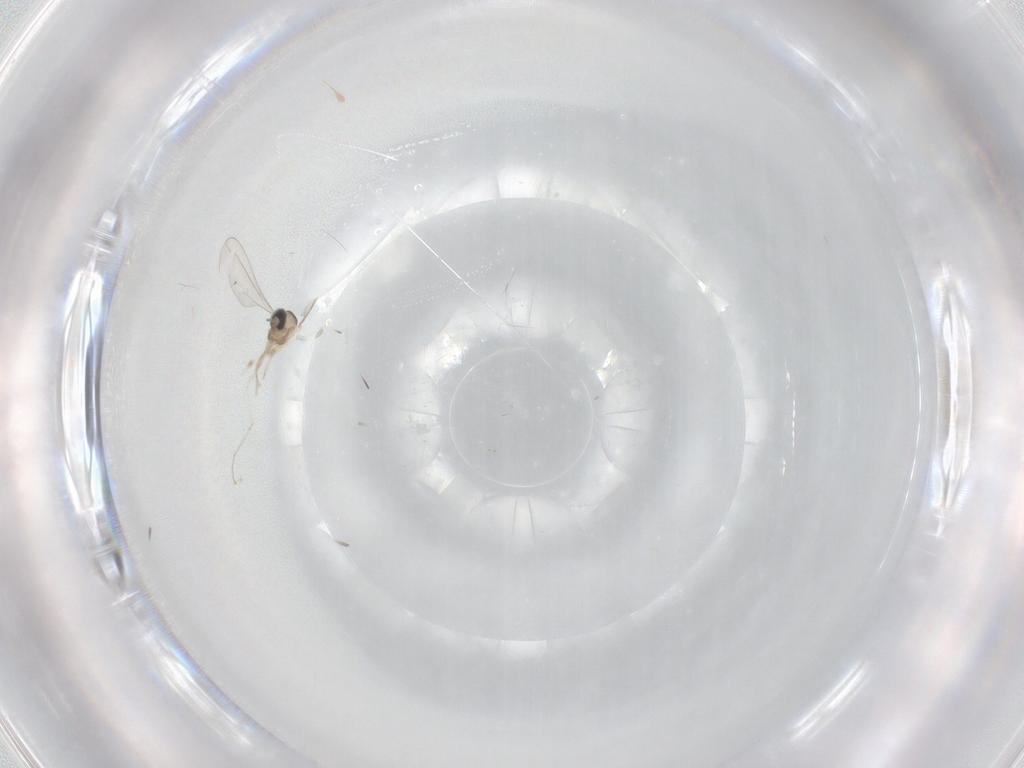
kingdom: Animalia
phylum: Arthropoda
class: Insecta
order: Diptera
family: Cecidomyiidae
